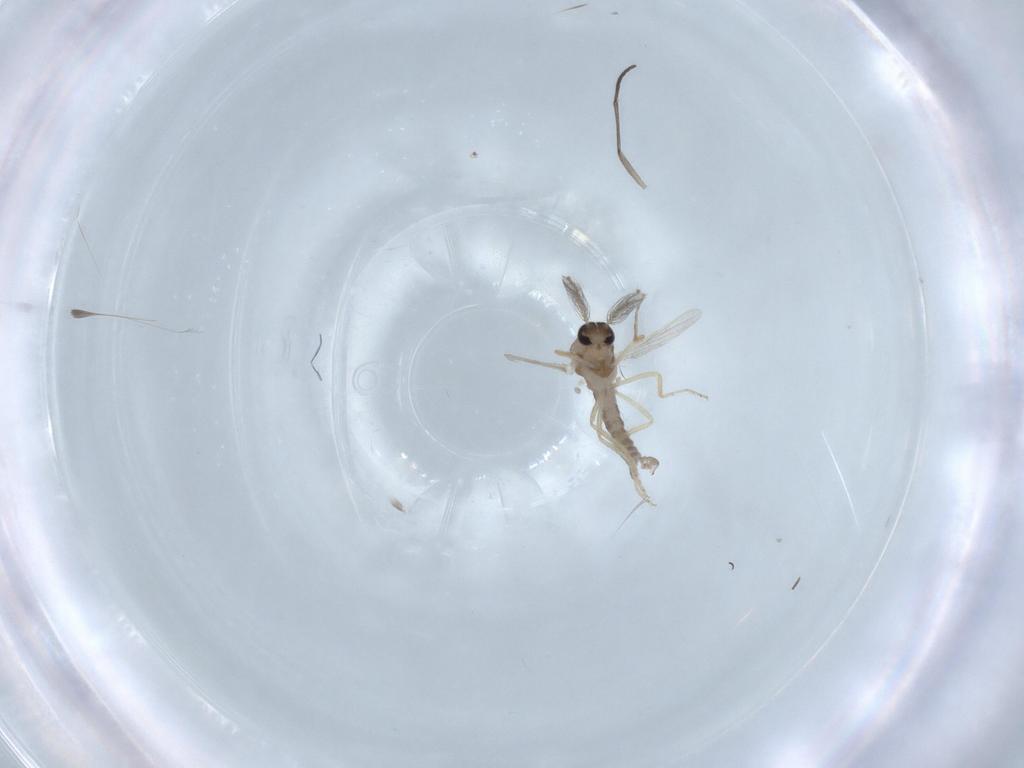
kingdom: Animalia
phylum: Arthropoda
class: Insecta
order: Diptera
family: Ceratopogonidae
